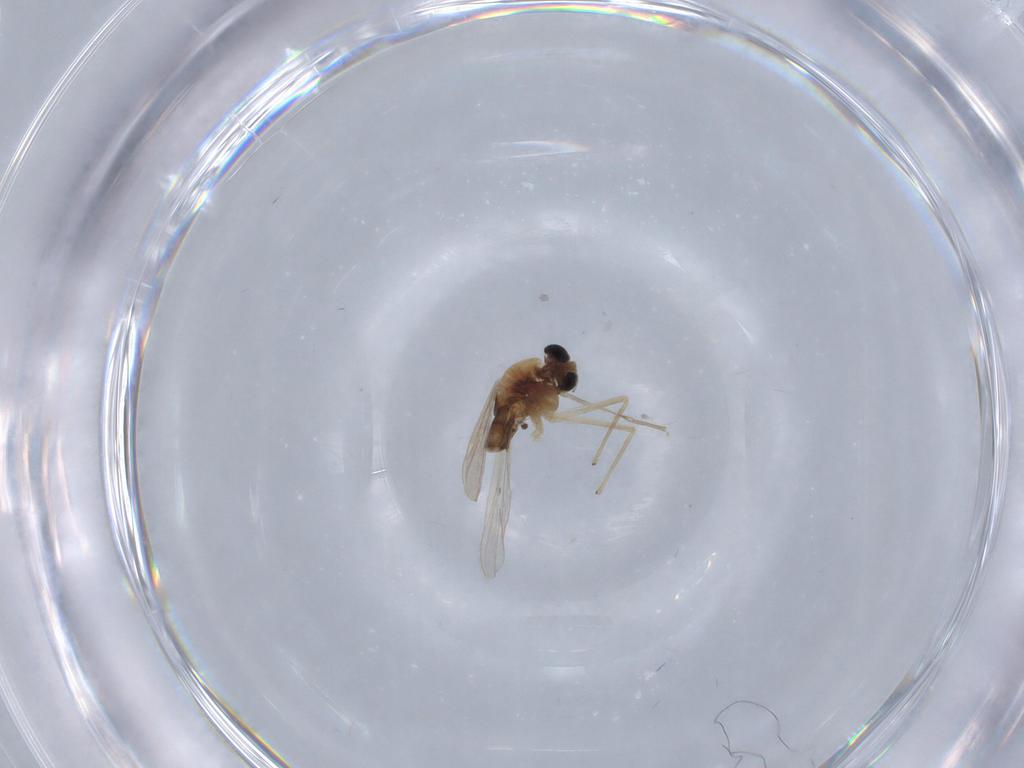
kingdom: Animalia
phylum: Arthropoda
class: Insecta
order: Diptera
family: Chironomidae
